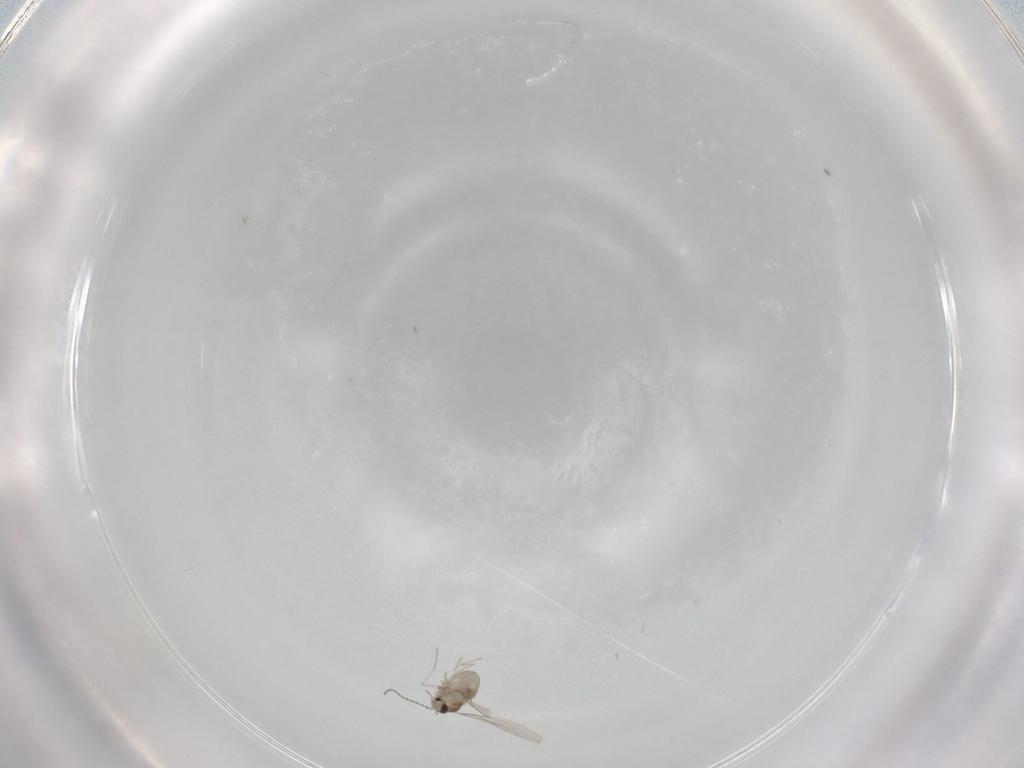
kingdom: Animalia
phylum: Arthropoda
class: Insecta
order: Diptera
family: Cecidomyiidae
